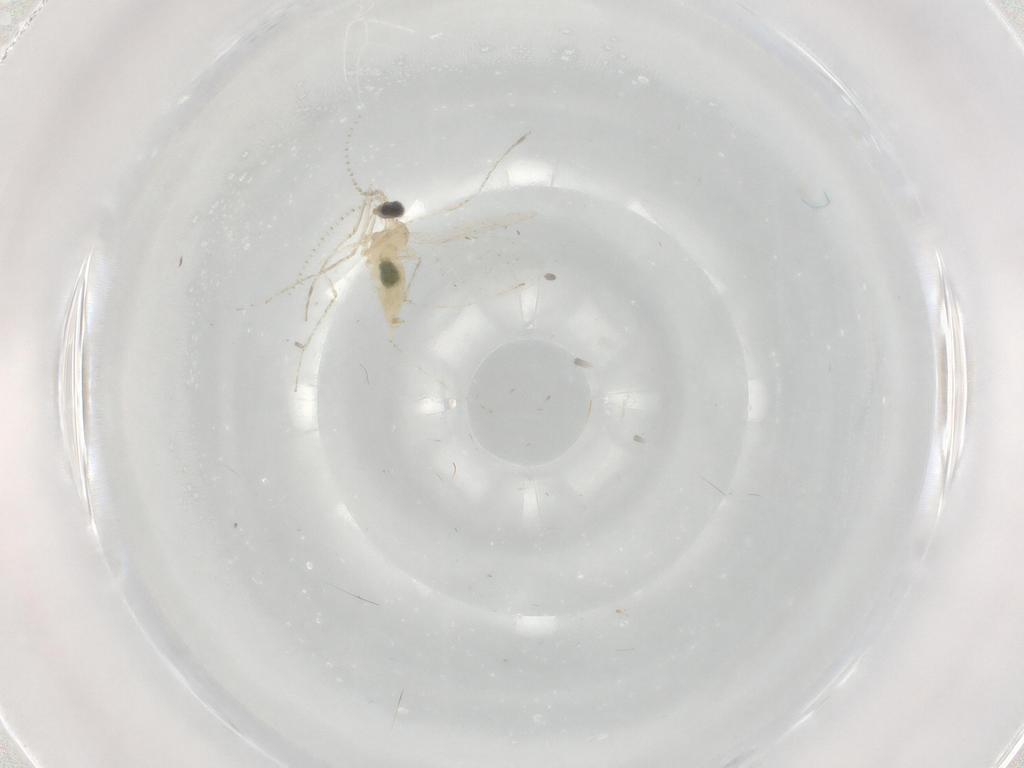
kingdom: Animalia
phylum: Arthropoda
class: Insecta
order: Diptera
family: Cecidomyiidae
